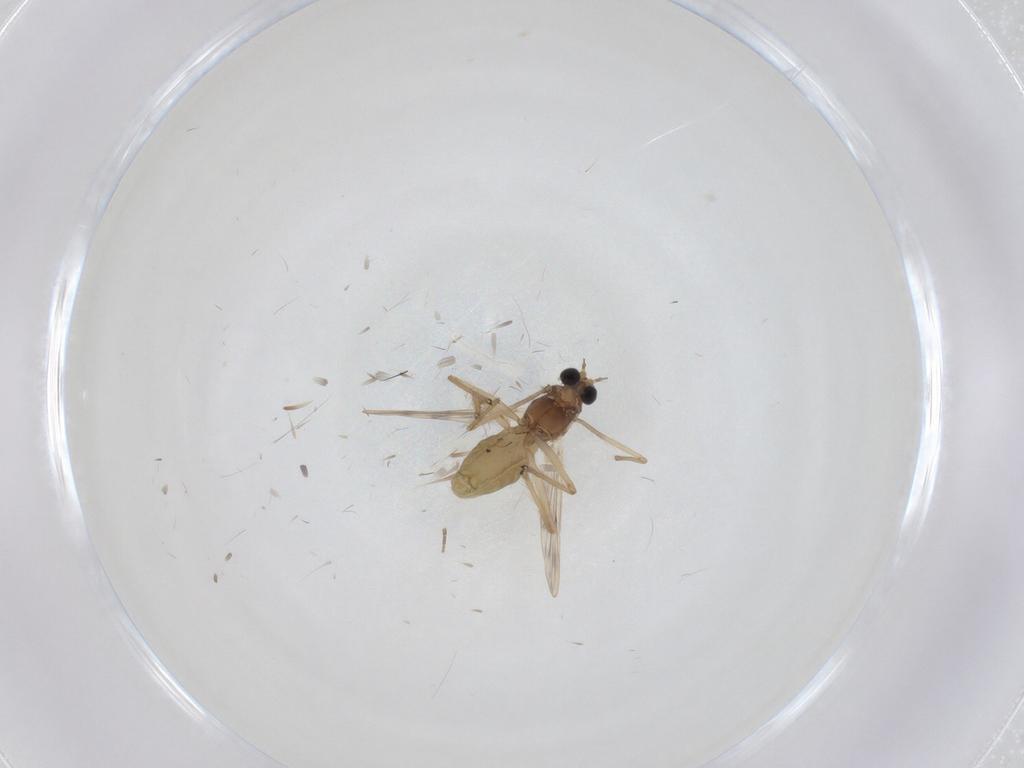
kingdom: Animalia
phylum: Arthropoda
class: Insecta
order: Diptera
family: Chironomidae
